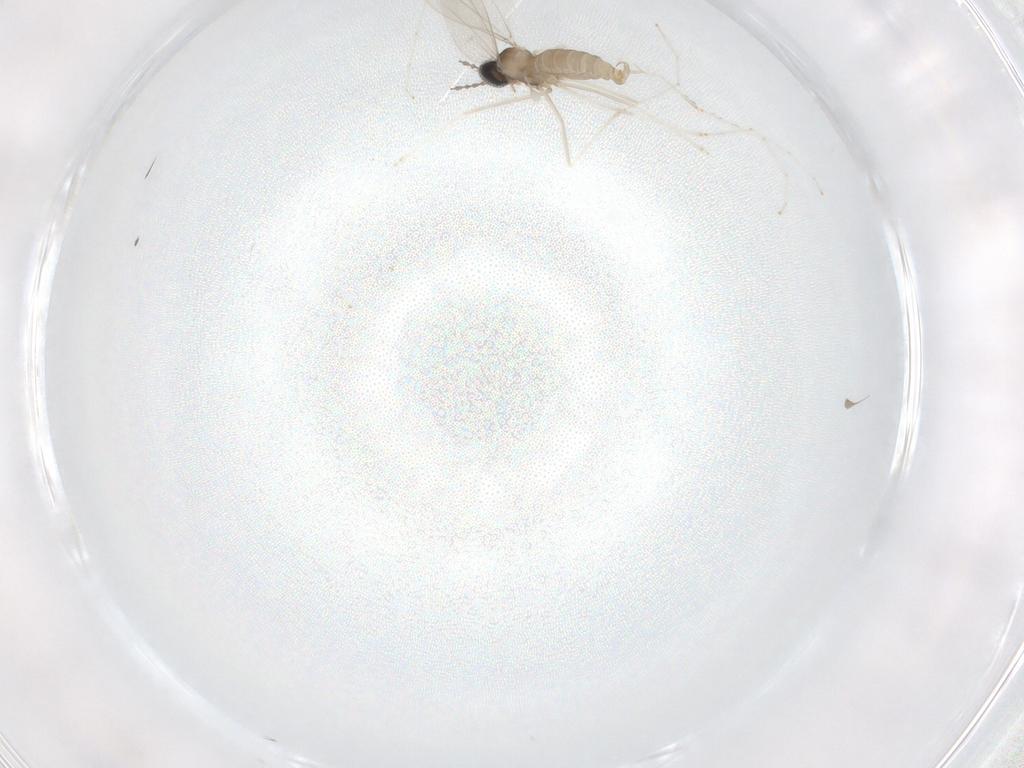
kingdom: Animalia
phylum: Arthropoda
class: Insecta
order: Diptera
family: Cecidomyiidae
